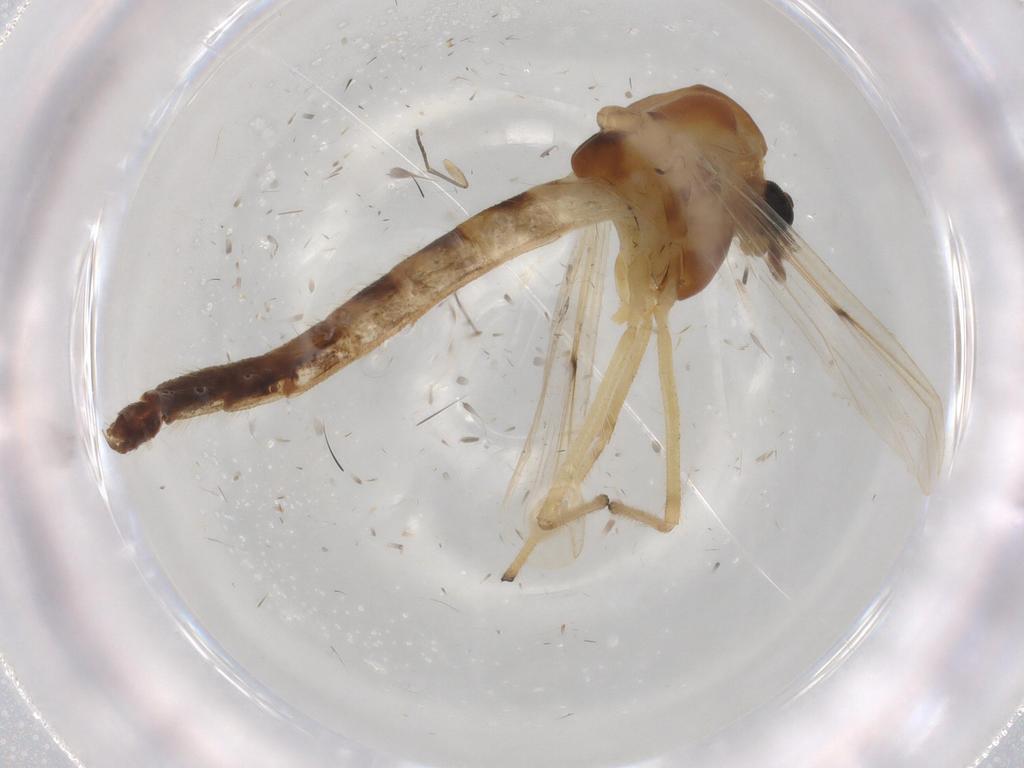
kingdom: Animalia
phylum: Arthropoda
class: Insecta
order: Diptera
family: Chironomidae
